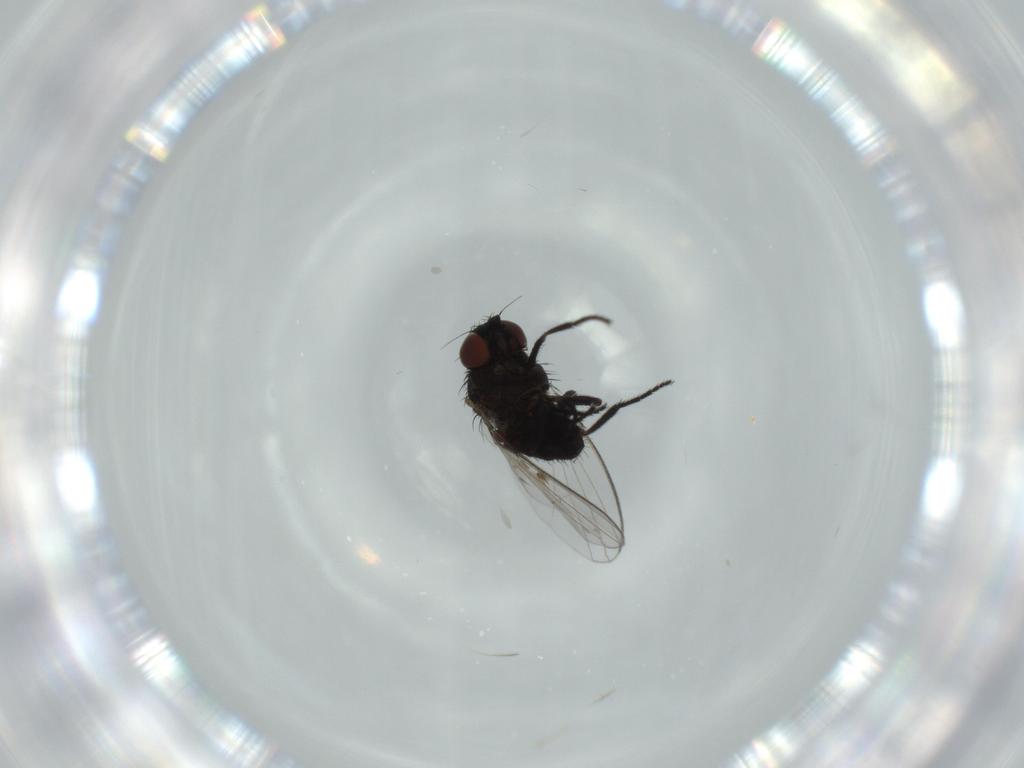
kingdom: Animalia
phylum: Arthropoda
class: Insecta
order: Diptera
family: Milichiidae
